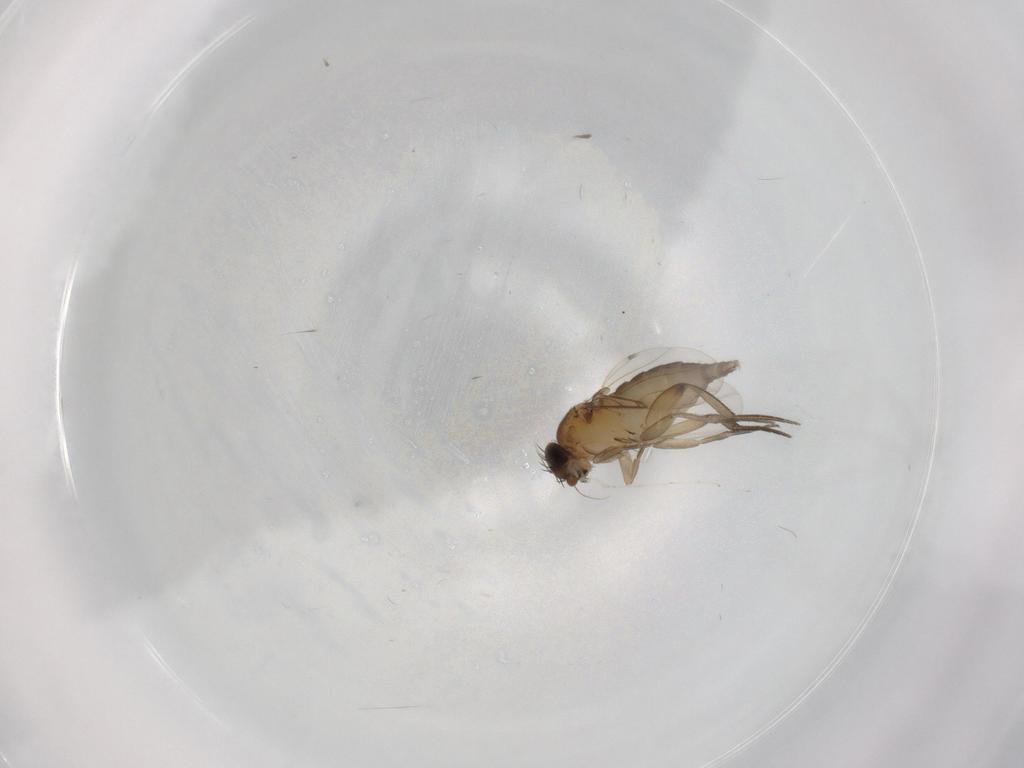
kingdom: Animalia
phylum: Arthropoda
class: Insecta
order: Diptera
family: Phoridae
